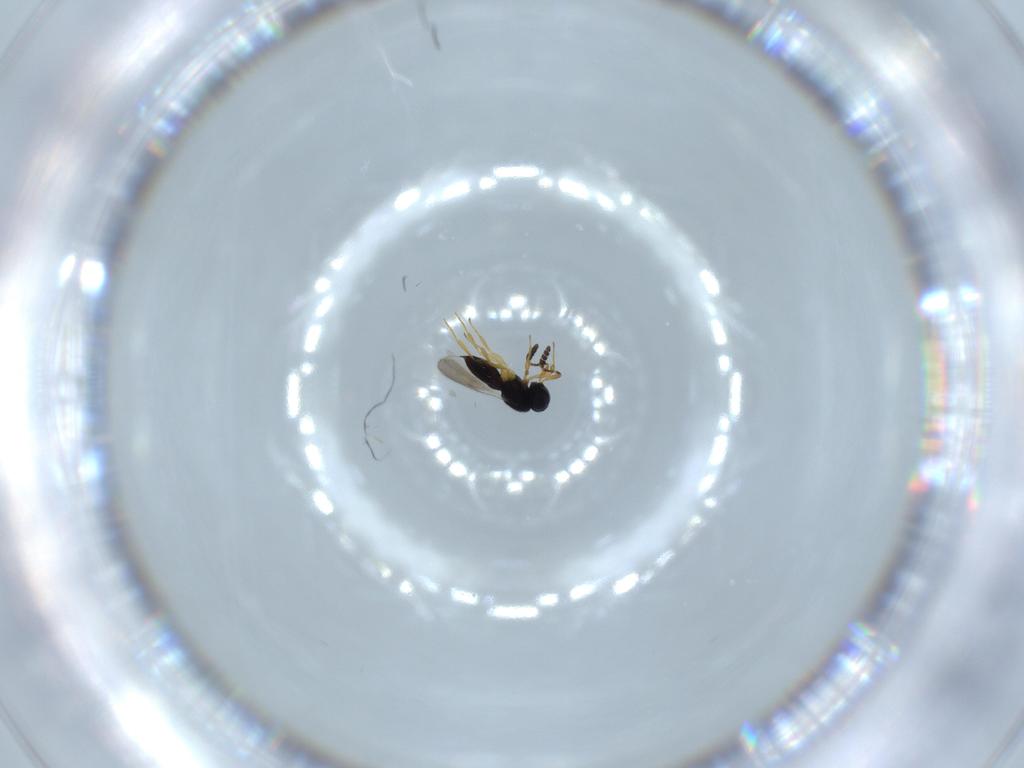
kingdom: Animalia
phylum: Arthropoda
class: Insecta
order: Hymenoptera
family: Scelionidae
